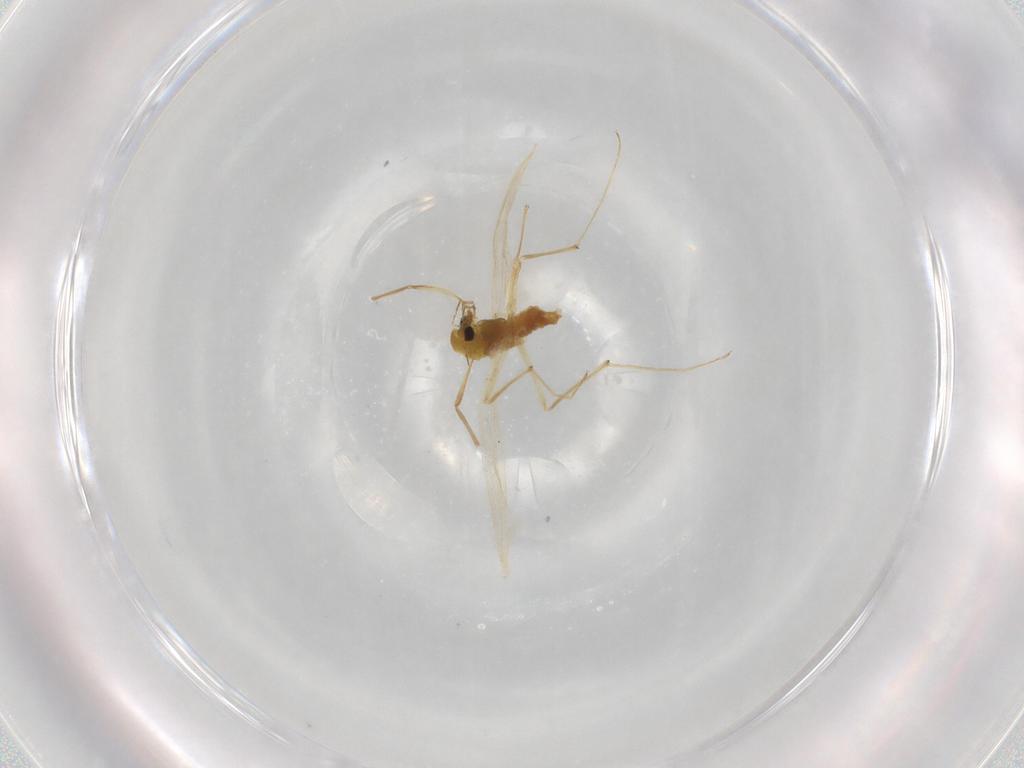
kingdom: Animalia
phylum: Arthropoda
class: Insecta
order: Diptera
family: Chironomidae
